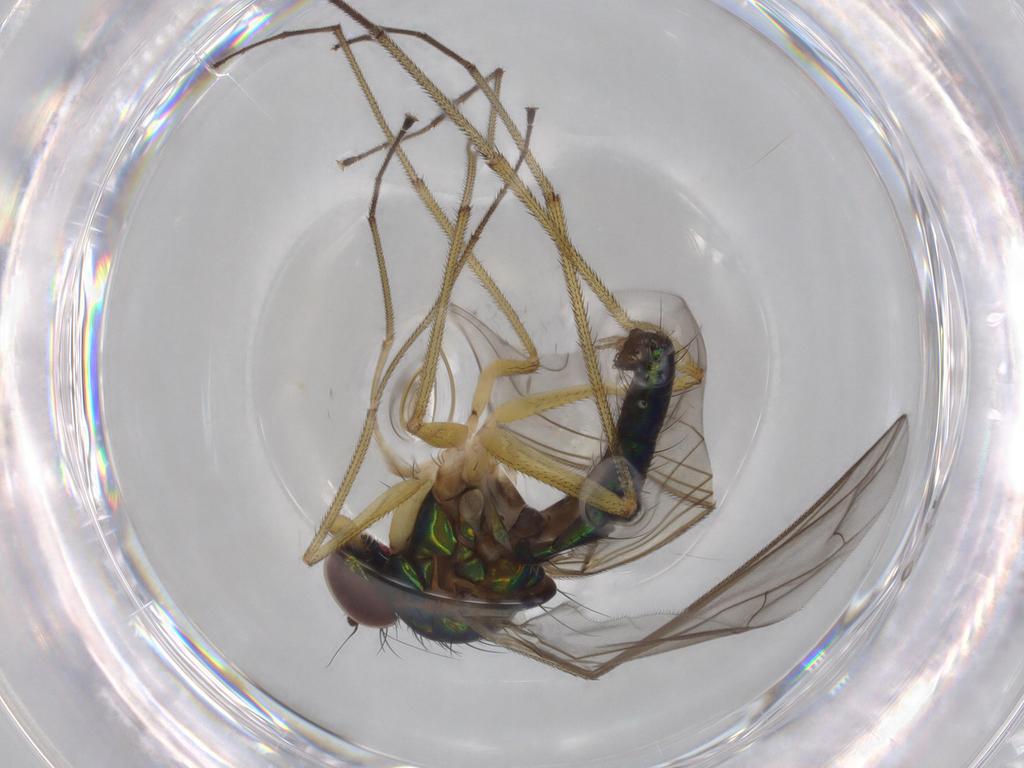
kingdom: Animalia
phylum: Arthropoda
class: Insecta
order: Diptera
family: Dolichopodidae
